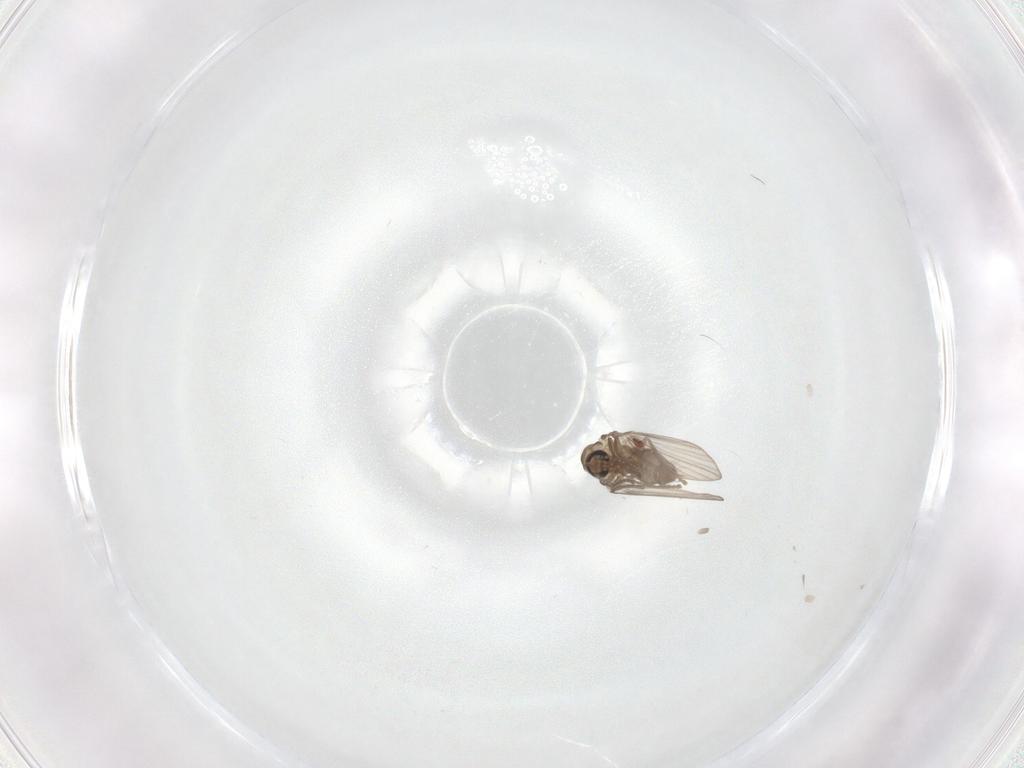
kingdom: Animalia
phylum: Arthropoda
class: Insecta
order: Diptera
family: Psychodidae
